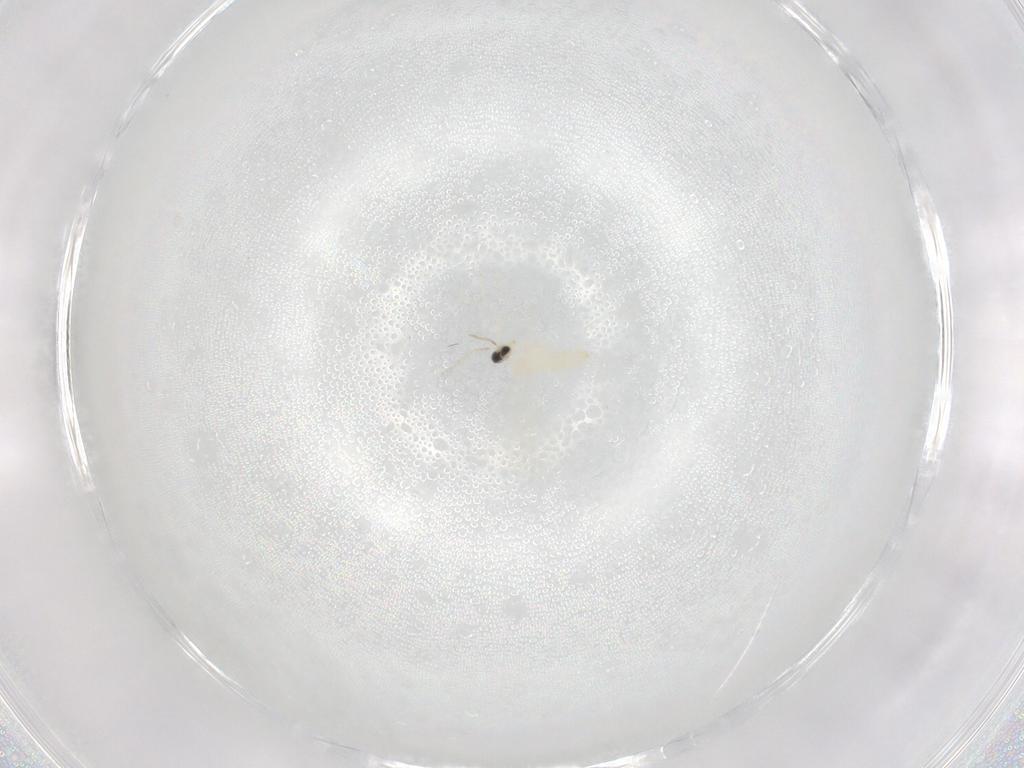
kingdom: Animalia
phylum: Arthropoda
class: Insecta
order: Diptera
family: Cecidomyiidae
